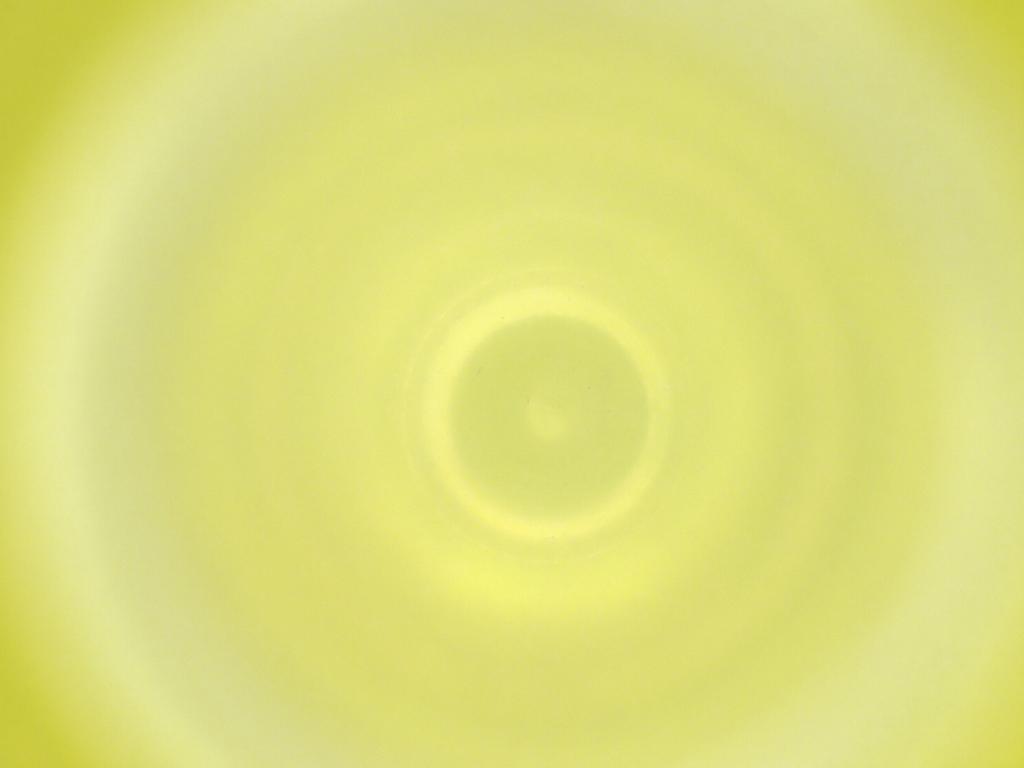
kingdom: Animalia
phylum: Arthropoda
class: Insecta
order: Diptera
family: Cecidomyiidae
